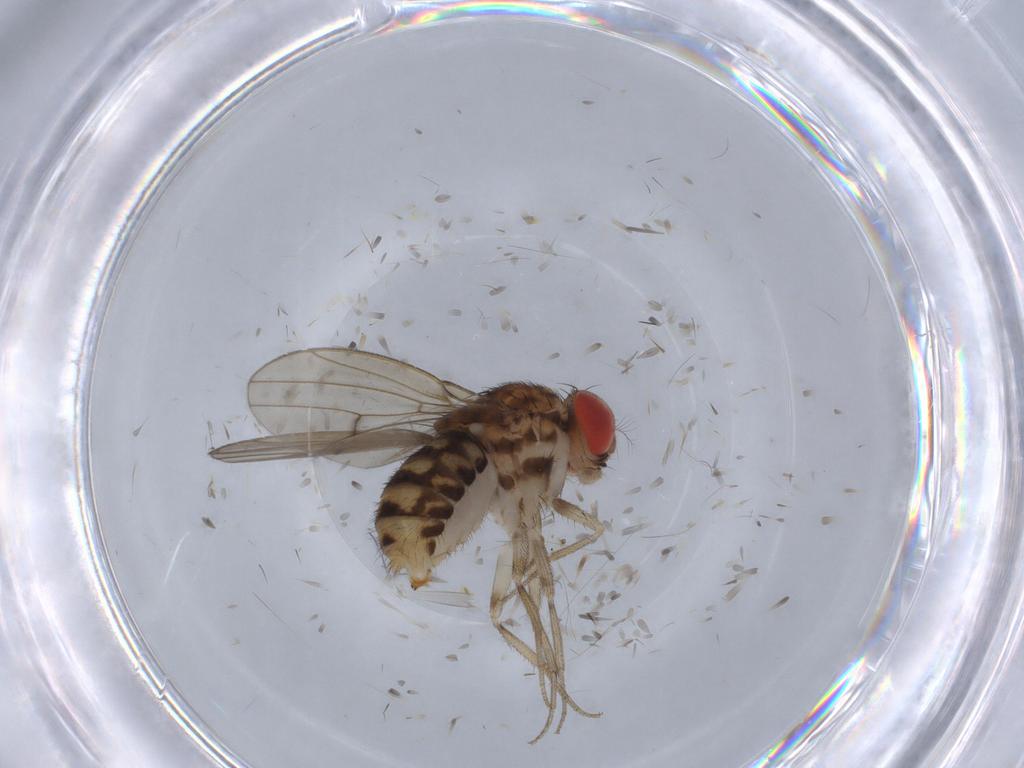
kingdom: Animalia
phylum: Arthropoda
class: Insecta
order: Diptera
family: Drosophilidae
